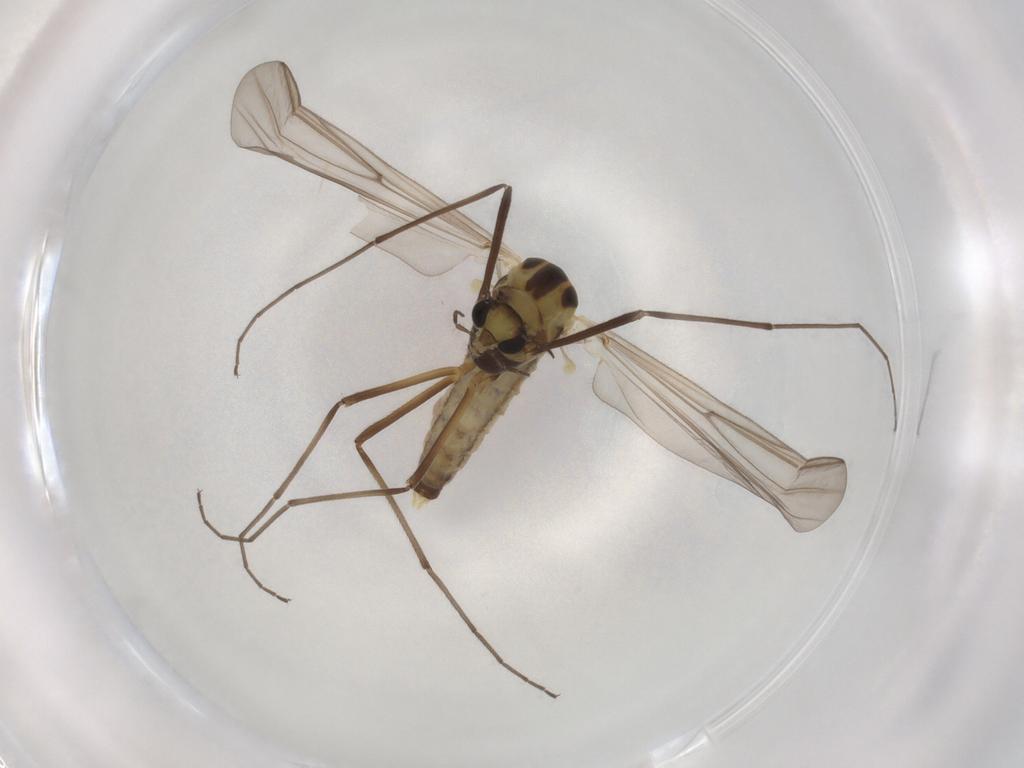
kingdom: Animalia
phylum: Arthropoda
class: Insecta
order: Diptera
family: Chironomidae
